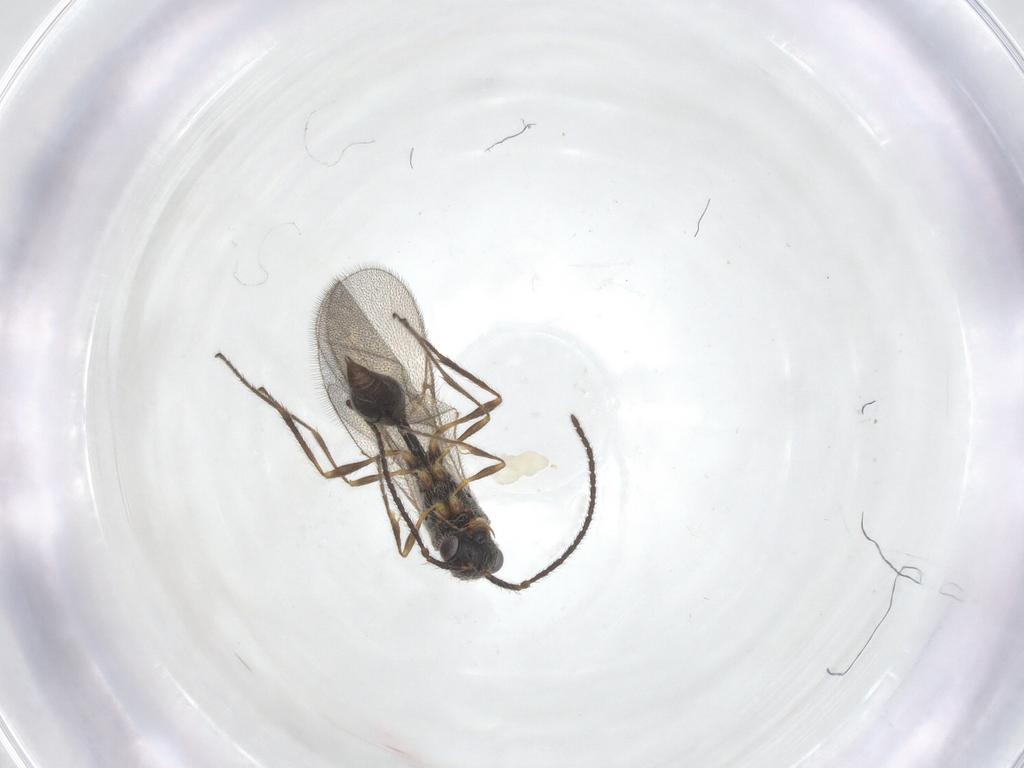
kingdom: Animalia
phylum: Arthropoda
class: Insecta
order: Hymenoptera
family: Diapriidae
